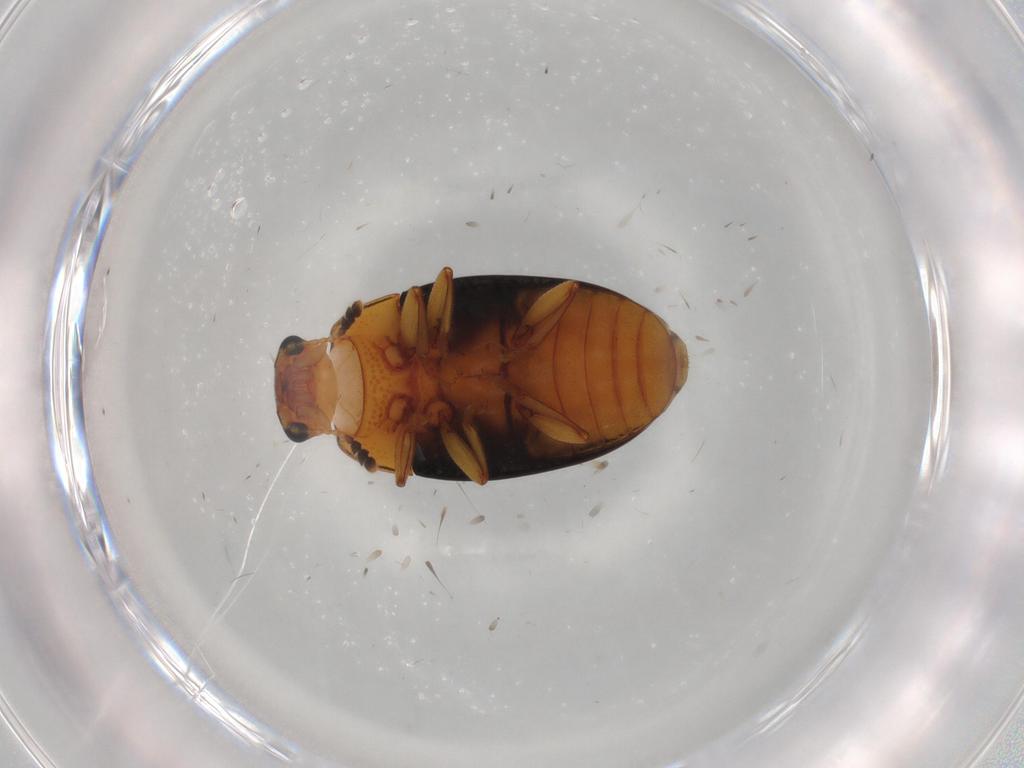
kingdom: Animalia
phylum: Arthropoda
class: Insecta
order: Coleoptera
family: Erotylidae
